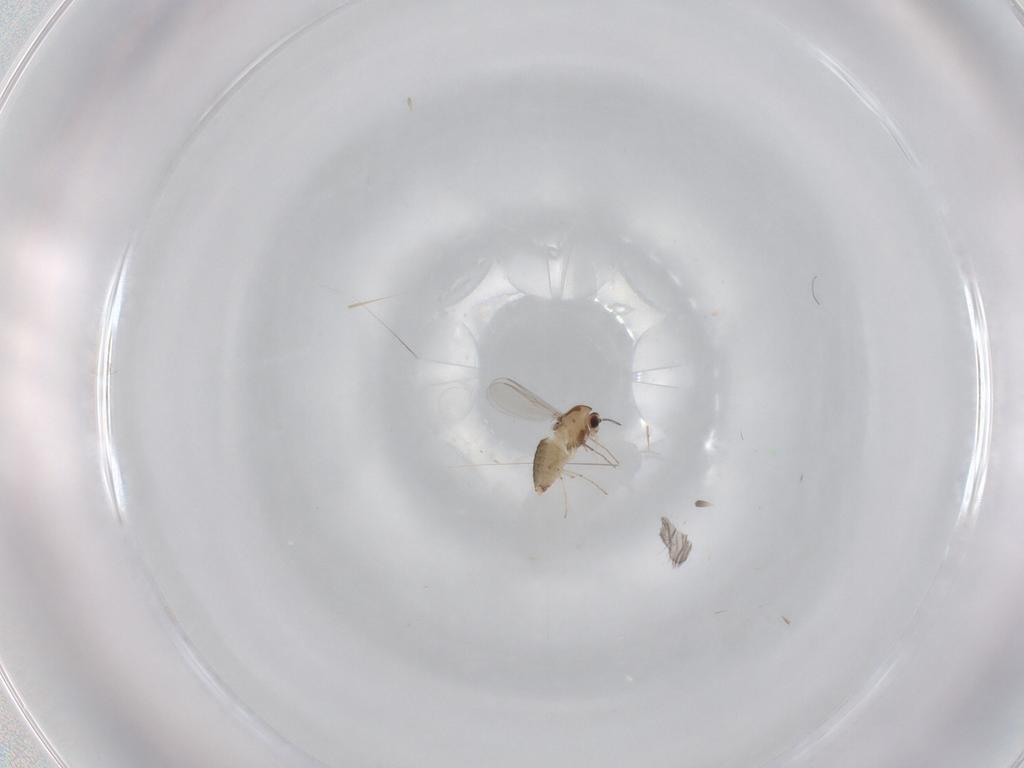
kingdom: Animalia
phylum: Arthropoda
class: Insecta
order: Diptera
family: Chironomidae
